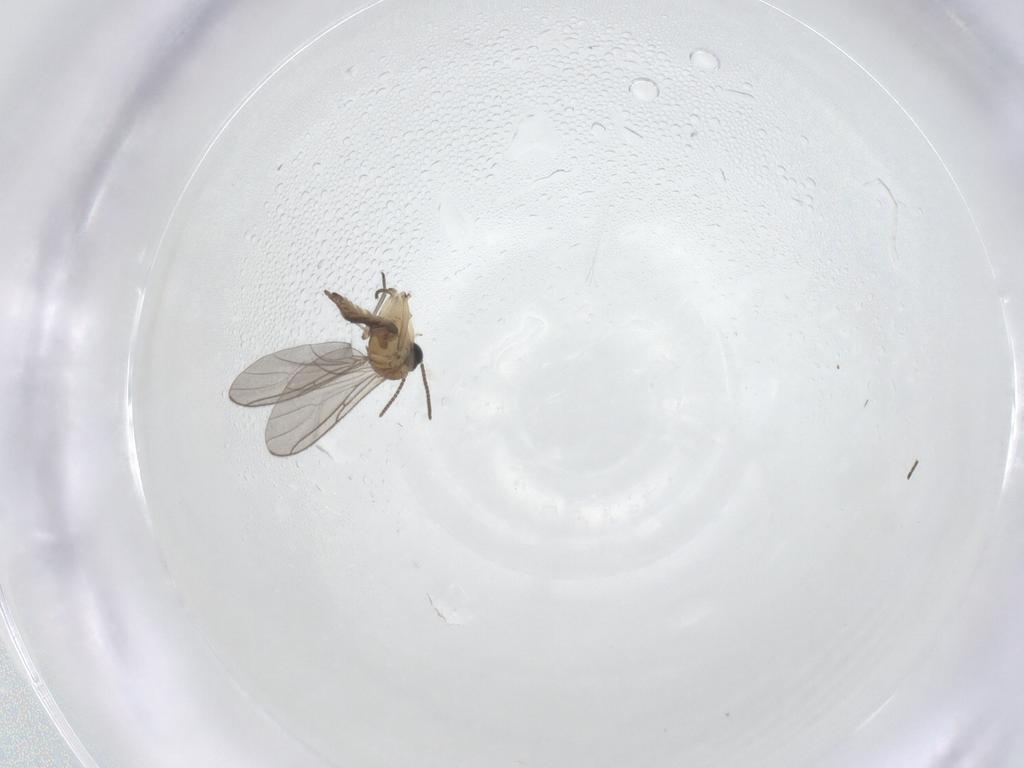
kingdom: Animalia
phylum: Arthropoda
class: Insecta
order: Diptera
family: Sciaridae
